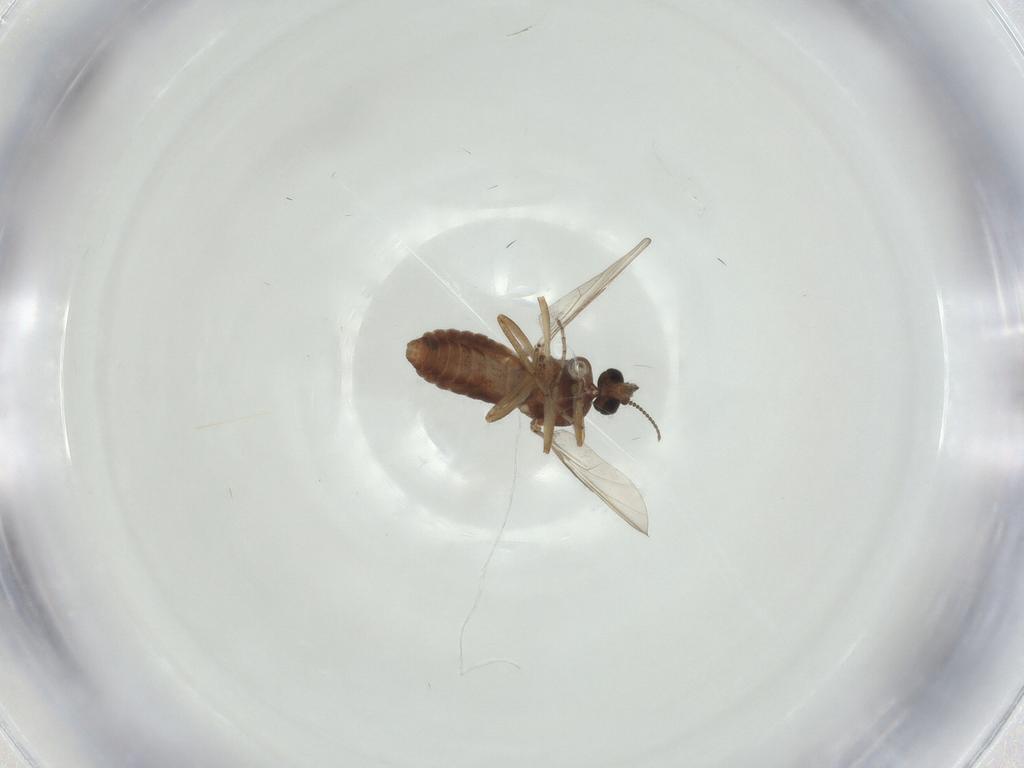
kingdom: Animalia
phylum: Arthropoda
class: Insecta
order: Diptera
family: Ceratopogonidae
